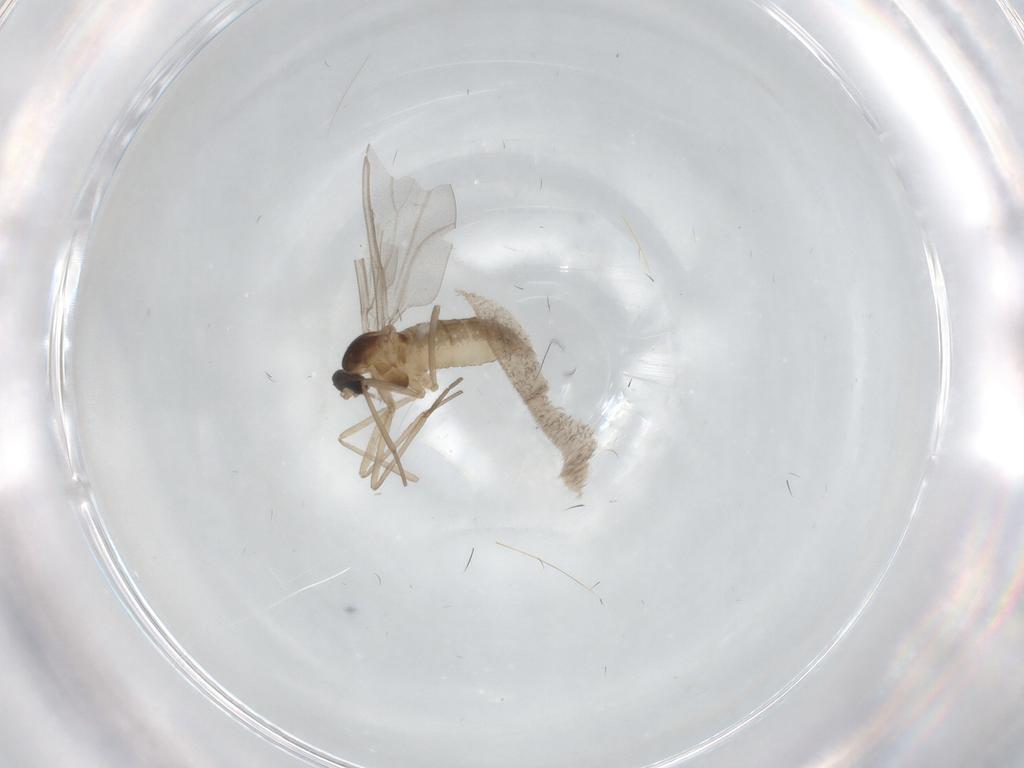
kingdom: Animalia
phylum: Arthropoda
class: Insecta
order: Diptera
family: Cecidomyiidae
